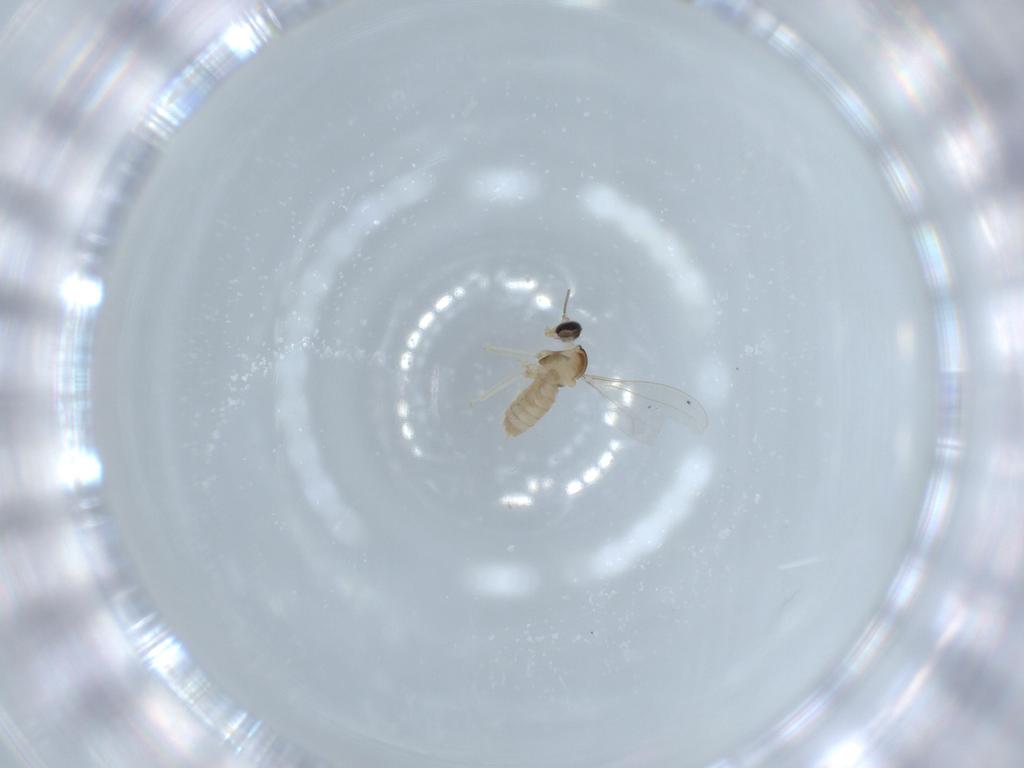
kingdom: Animalia
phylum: Arthropoda
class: Insecta
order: Diptera
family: Cecidomyiidae
